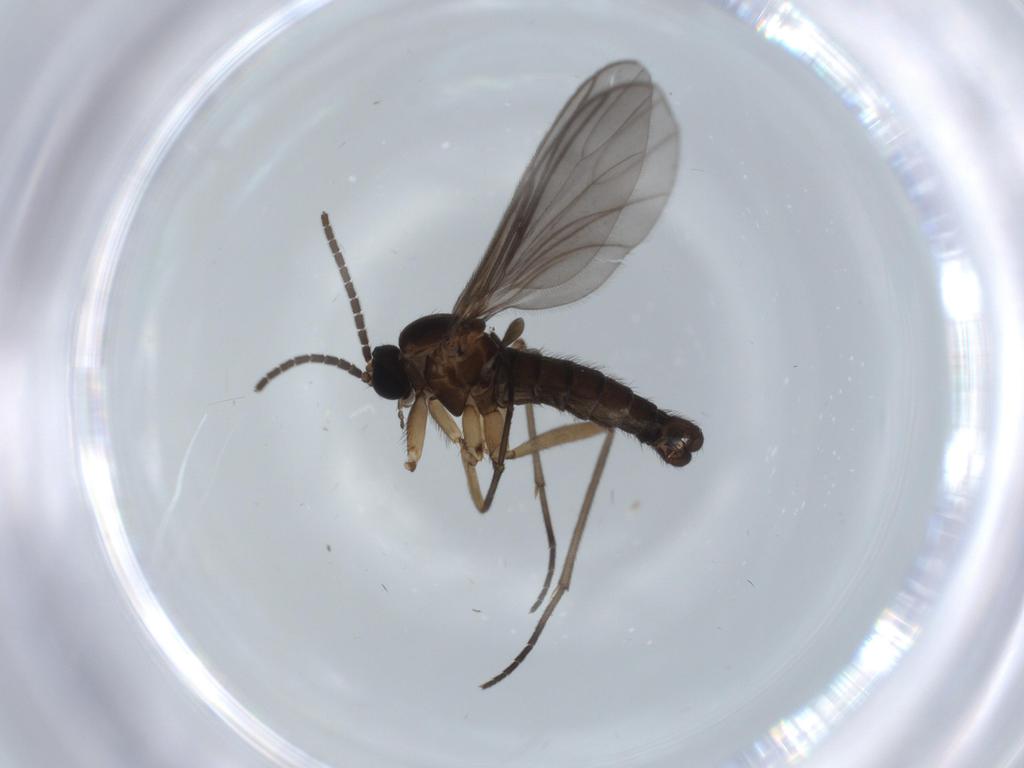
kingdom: Animalia
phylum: Arthropoda
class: Insecta
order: Diptera
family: Sciaridae
